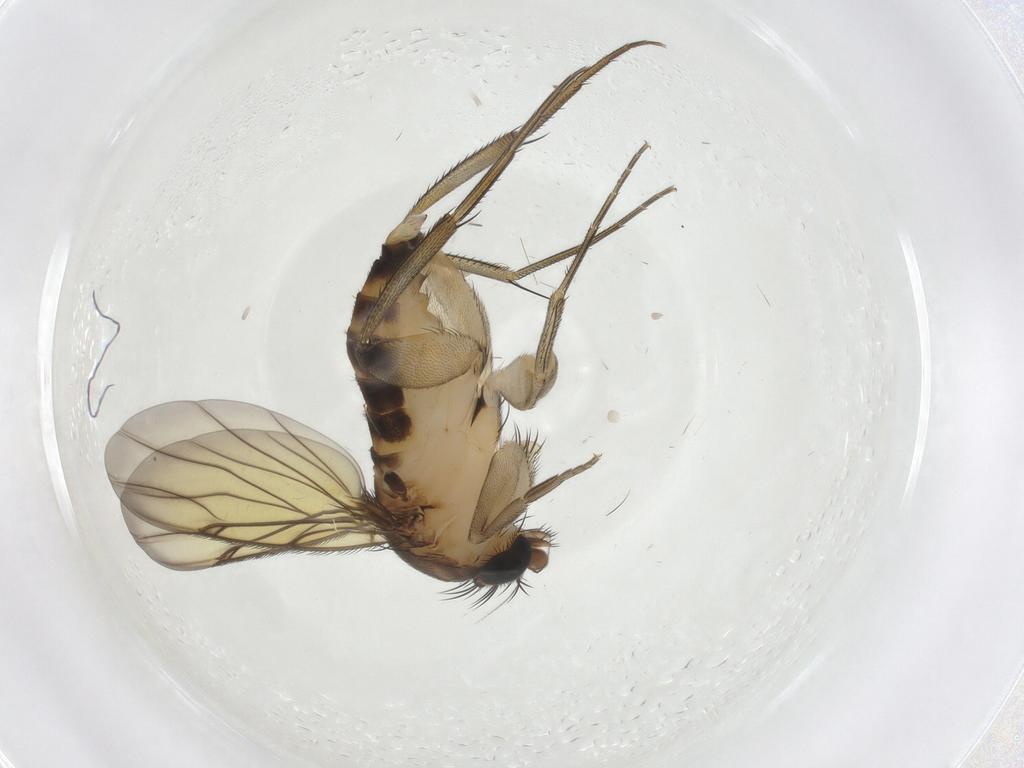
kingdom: Animalia
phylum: Arthropoda
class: Insecta
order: Diptera
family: Phoridae
